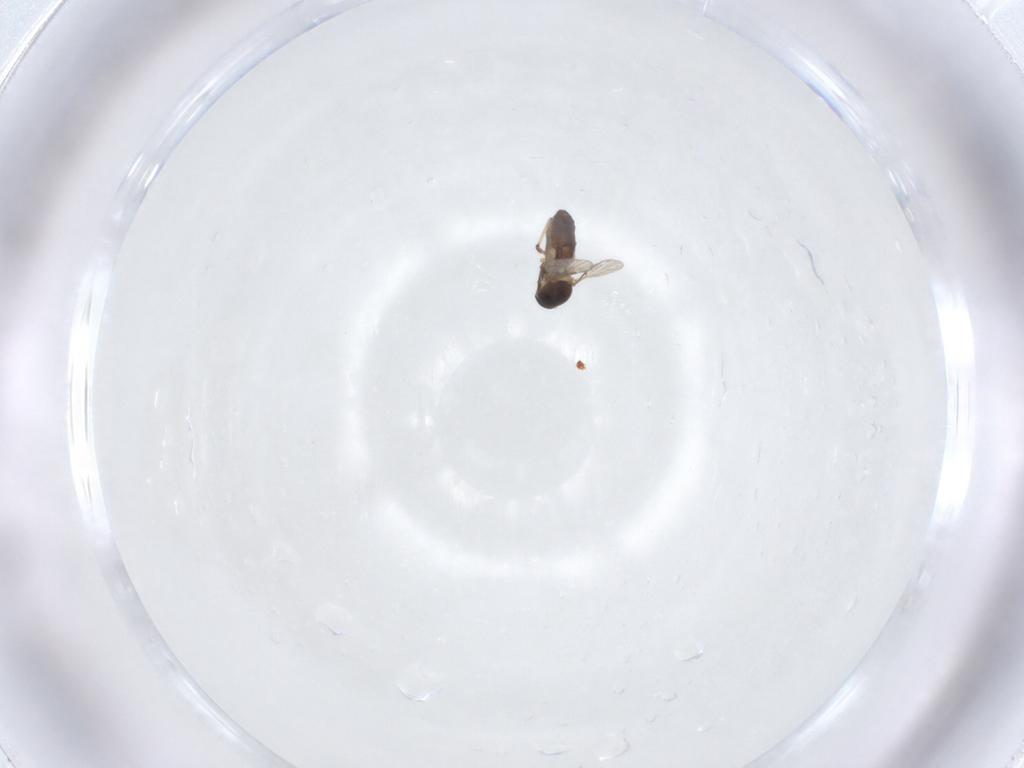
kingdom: Animalia
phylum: Arthropoda
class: Insecta
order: Diptera
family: Ceratopogonidae
